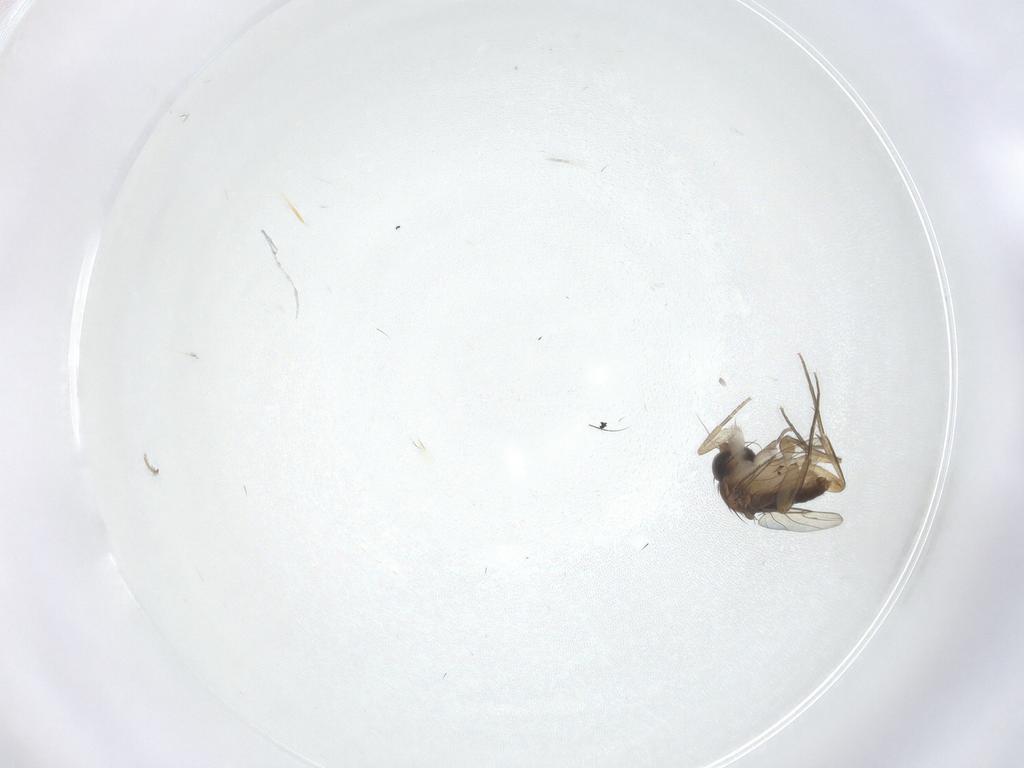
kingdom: Animalia
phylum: Arthropoda
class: Insecta
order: Diptera
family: Phoridae
